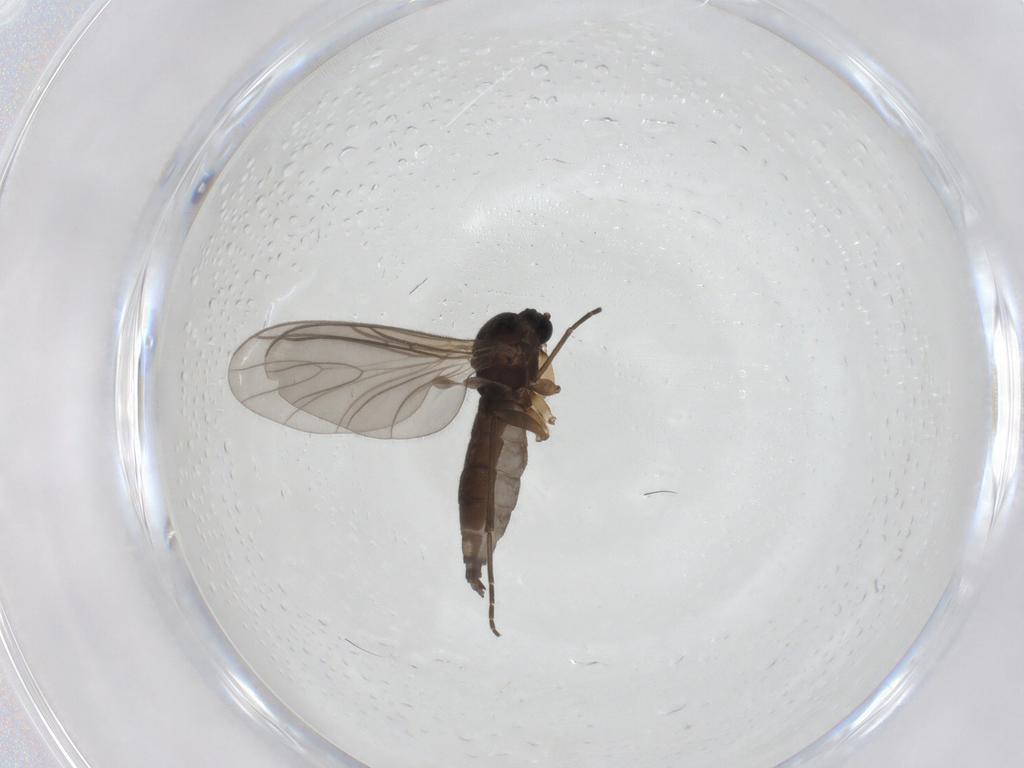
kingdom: Animalia
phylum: Arthropoda
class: Insecta
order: Diptera
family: Sciaridae
